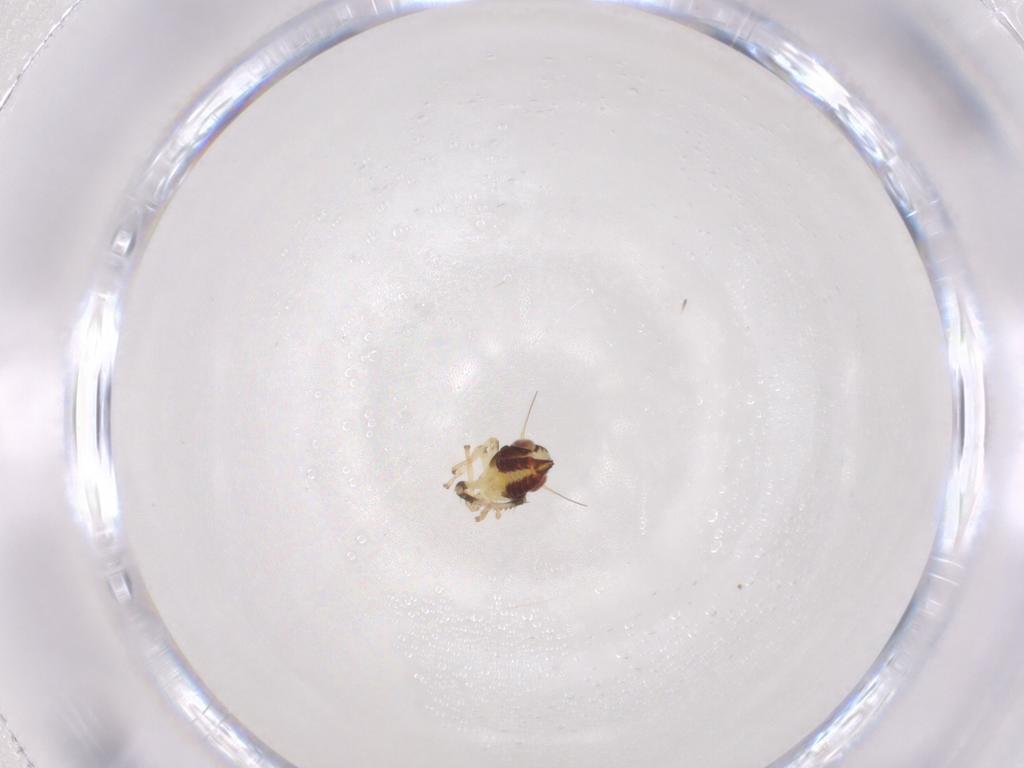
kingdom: Animalia
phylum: Arthropoda
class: Insecta
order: Hemiptera
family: Cicadellidae
